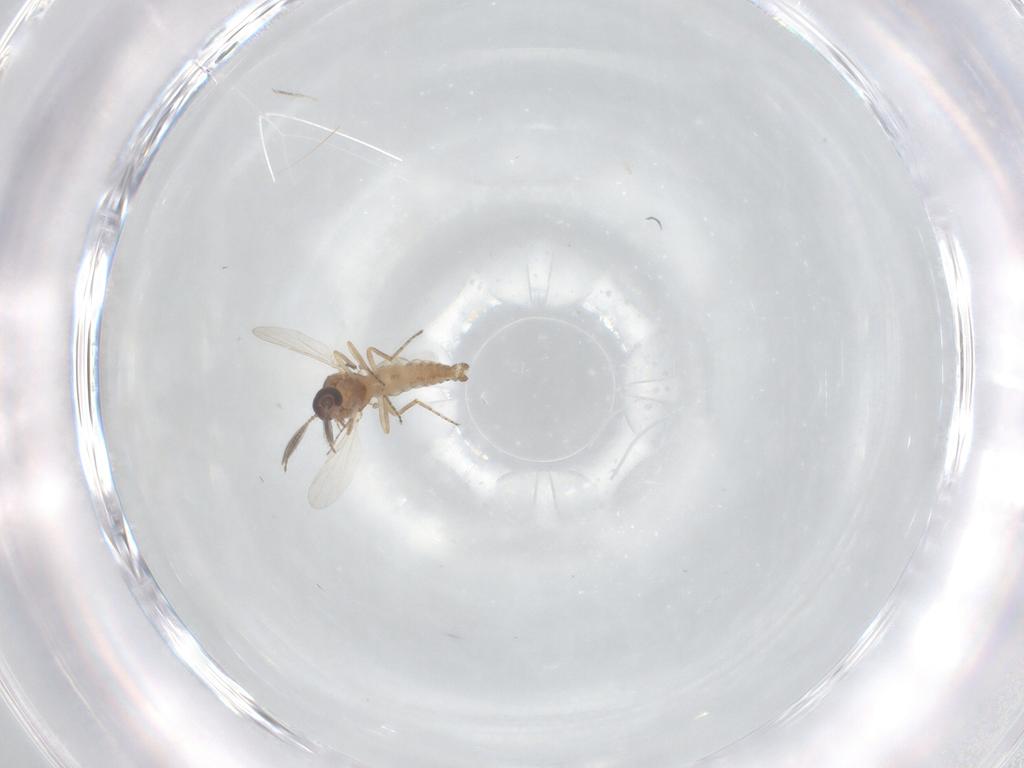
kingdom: Animalia
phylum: Arthropoda
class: Insecta
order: Diptera
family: Ceratopogonidae
